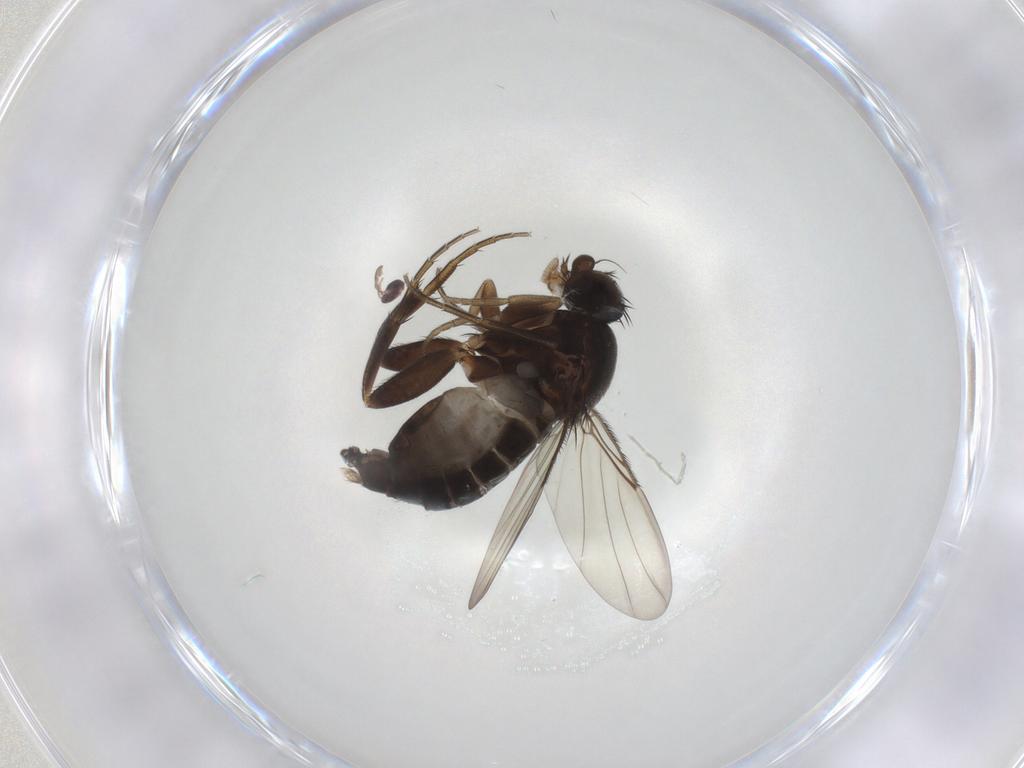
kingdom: Animalia
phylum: Arthropoda
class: Insecta
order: Diptera
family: Phoridae
